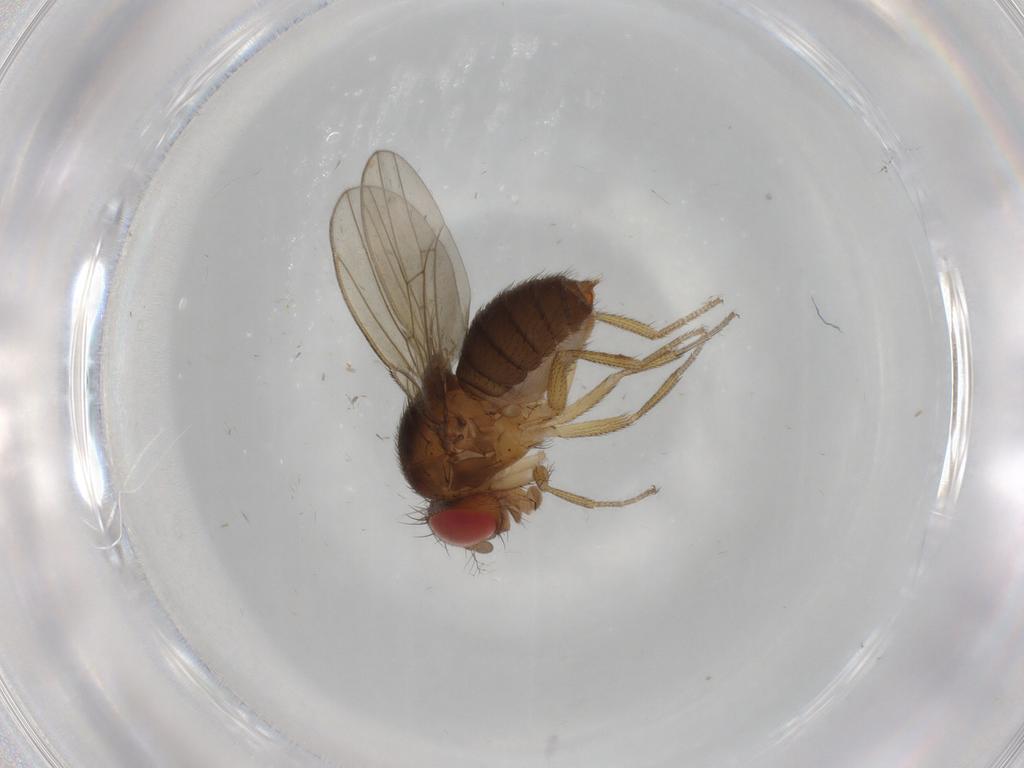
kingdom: Animalia
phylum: Arthropoda
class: Insecta
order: Diptera
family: Drosophilidae
